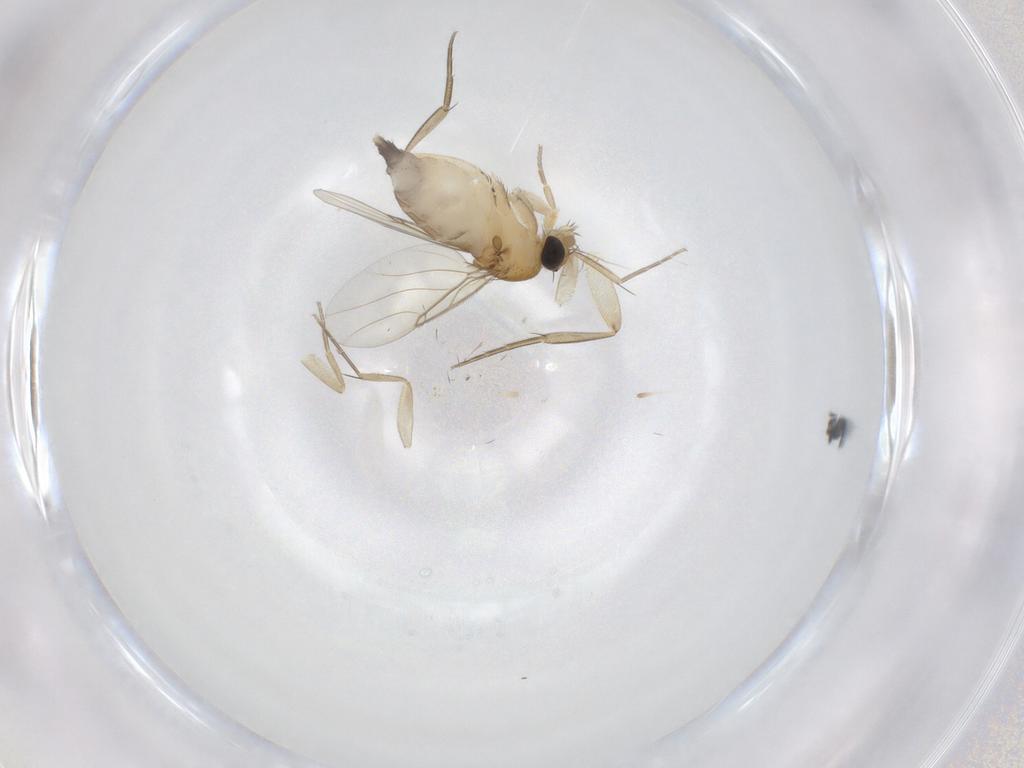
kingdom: Animalia
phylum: Arthropoda
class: Insecta
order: Diptera
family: Phoridae
